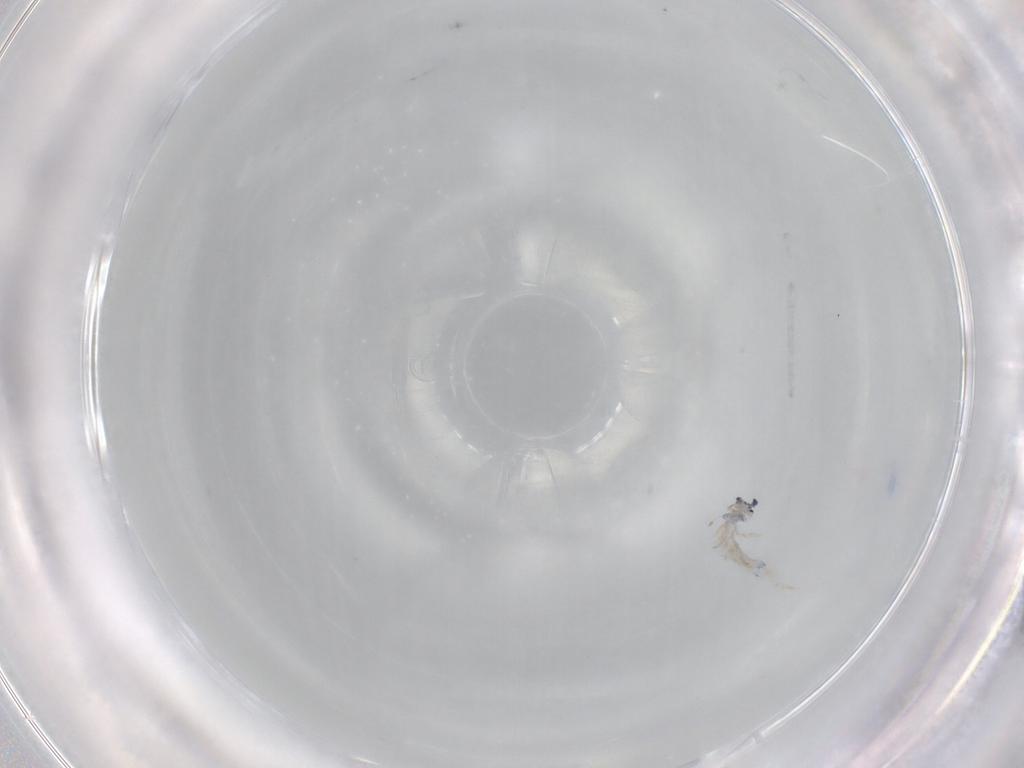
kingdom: Animalia
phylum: Arthropoda
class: Collembola
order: Entomobryomorpha
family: Entomobryidae
